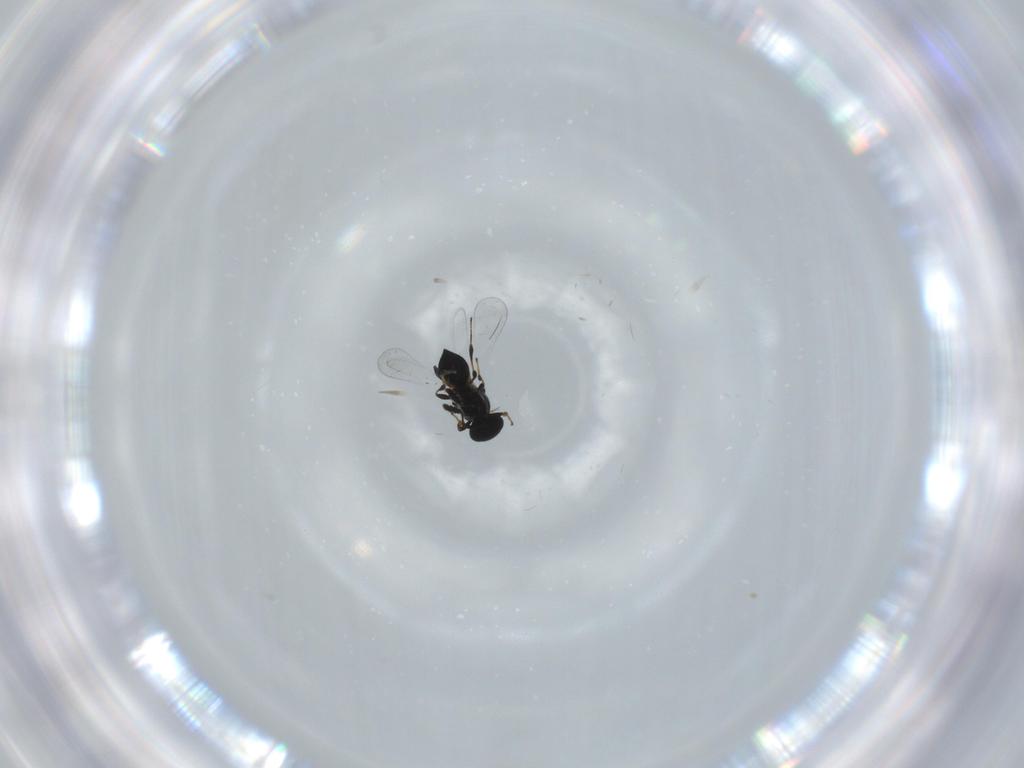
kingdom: Animalia
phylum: Arthropoda
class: Insecta
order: Hymenoptera
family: Platygastridae
